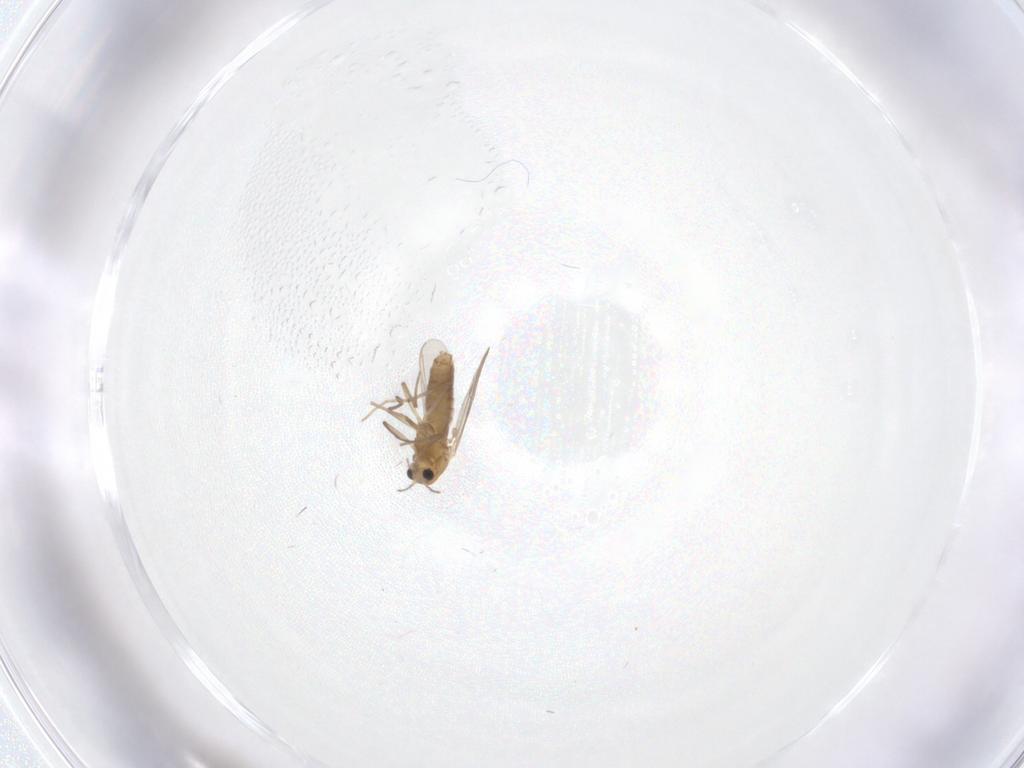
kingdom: Animalia
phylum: Arthropoda
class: Insecta
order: Diptera
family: Chironomidae
